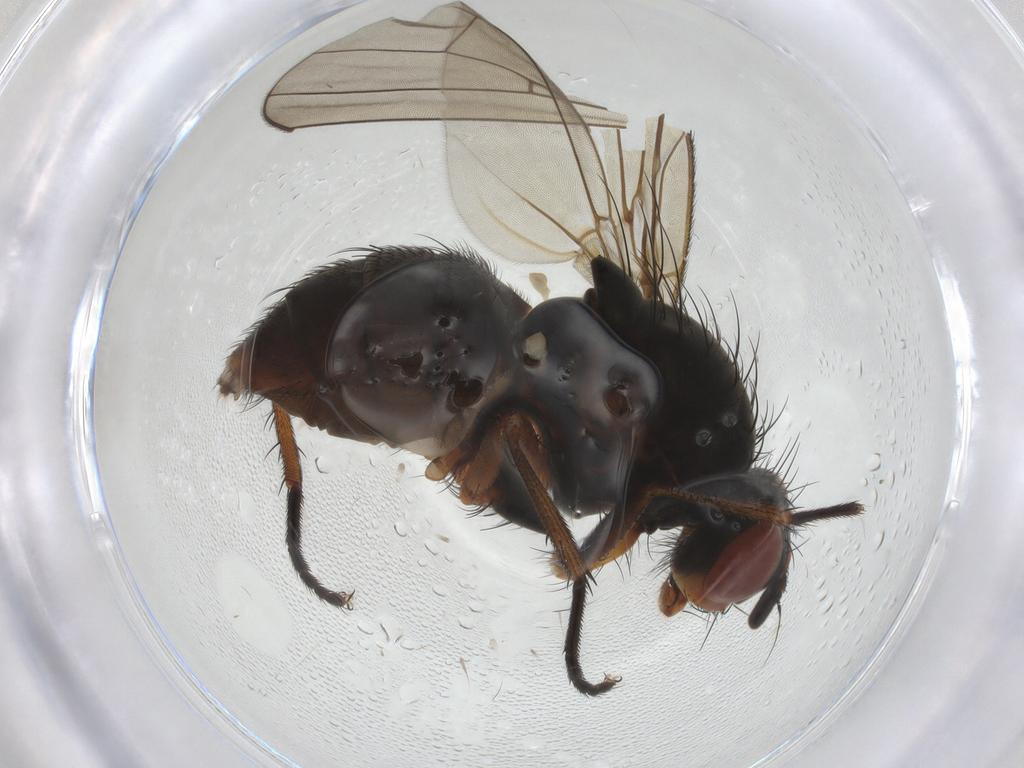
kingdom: Animalia
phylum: Arthropoda
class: Insecta
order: Diptera
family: Anthomyiidae
